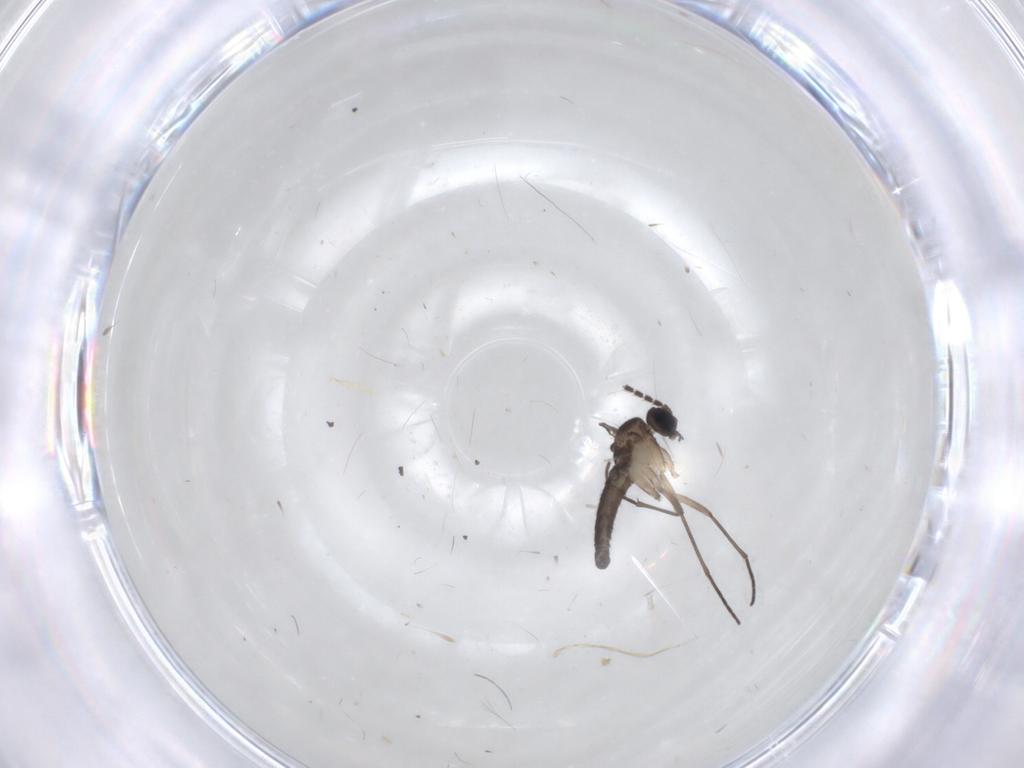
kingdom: Animalia
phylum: Arthropoda
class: Insecta
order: Diptera
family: Sciaridae
